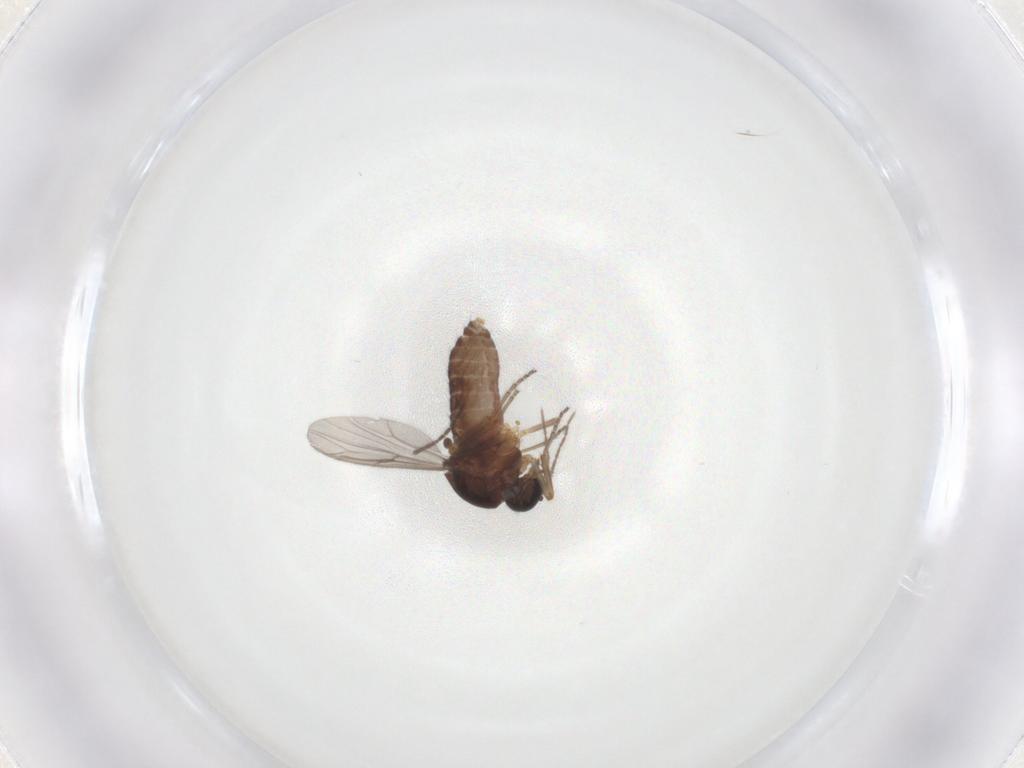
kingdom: Animalia
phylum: Arthropoda
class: Insecta
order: Diptera
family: Ceratopogonidae
